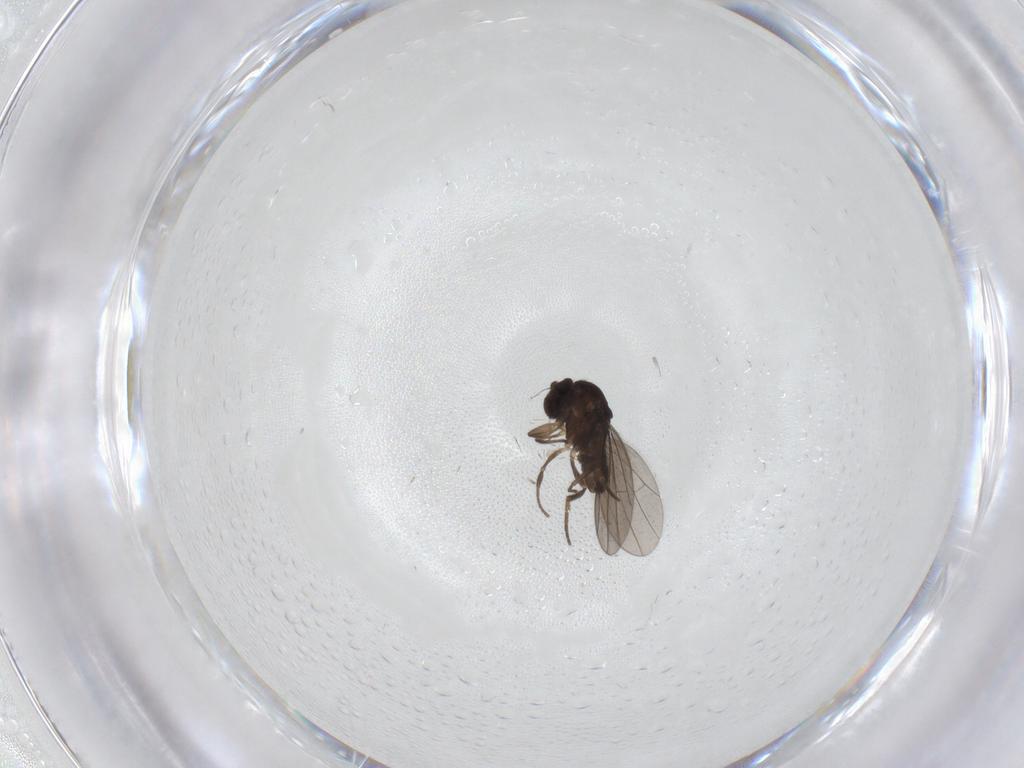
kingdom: Animalia
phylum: Arthropoda
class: Insecta
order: Diptera
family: Dolichopodidae
